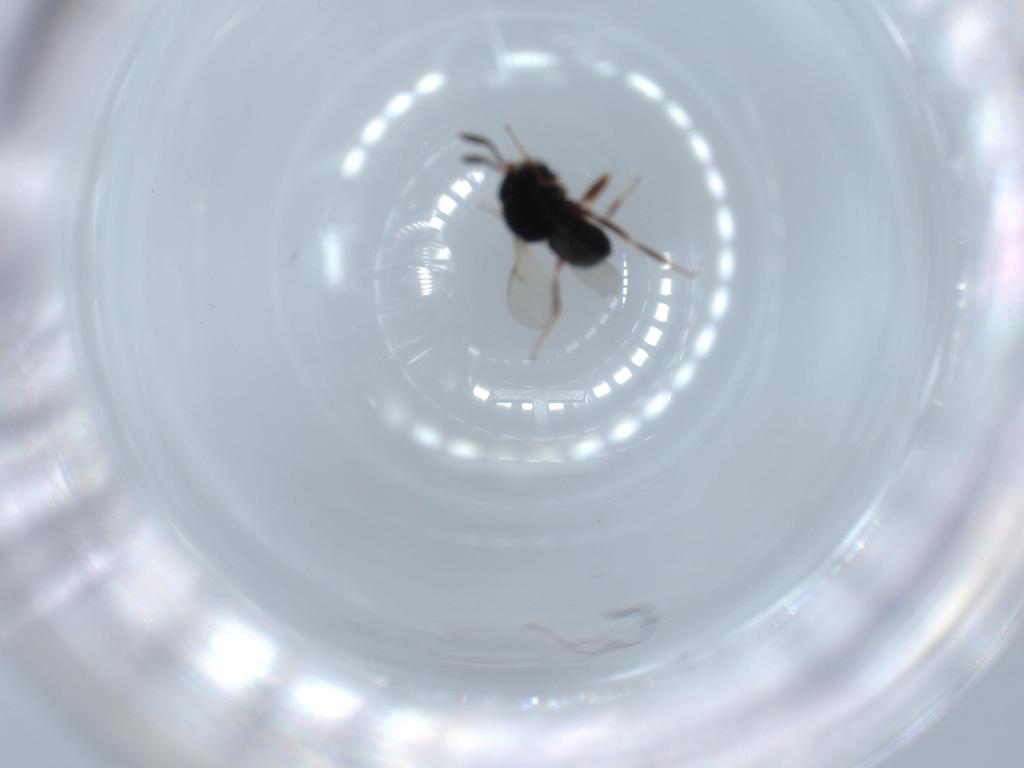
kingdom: Animalia
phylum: Arthropoda
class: Insecta
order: Hymenoptera
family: Scelionidae
